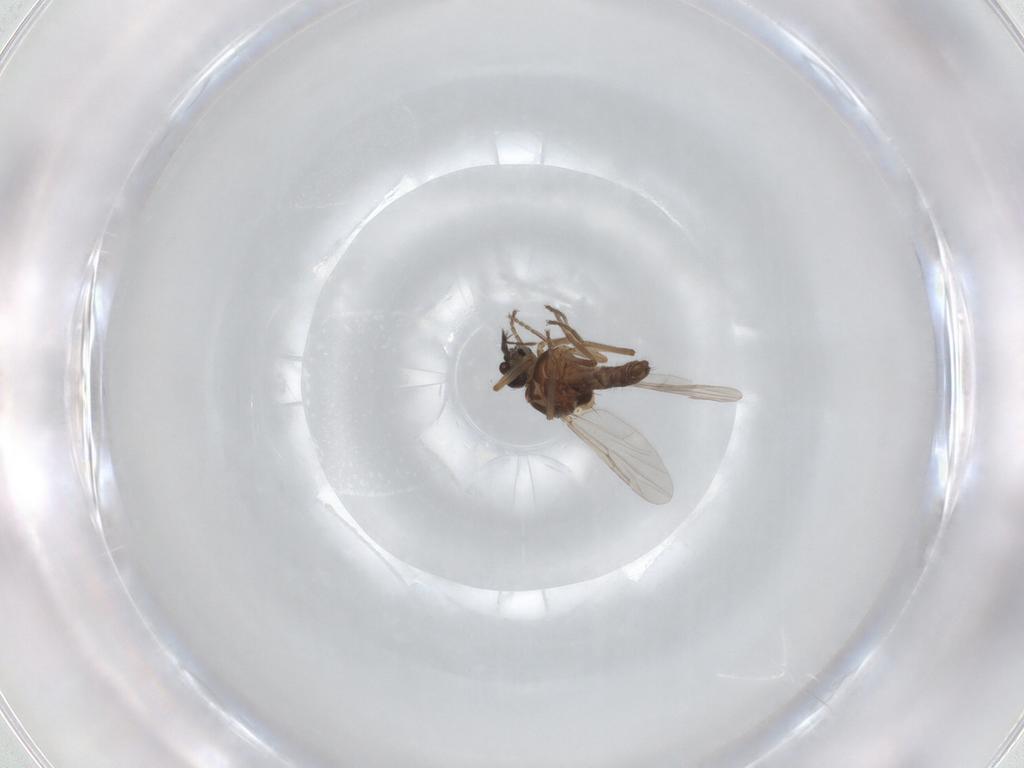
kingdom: Animalia
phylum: Arthropoda
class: Insecta
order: Diptera
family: Ceratopogonidae
